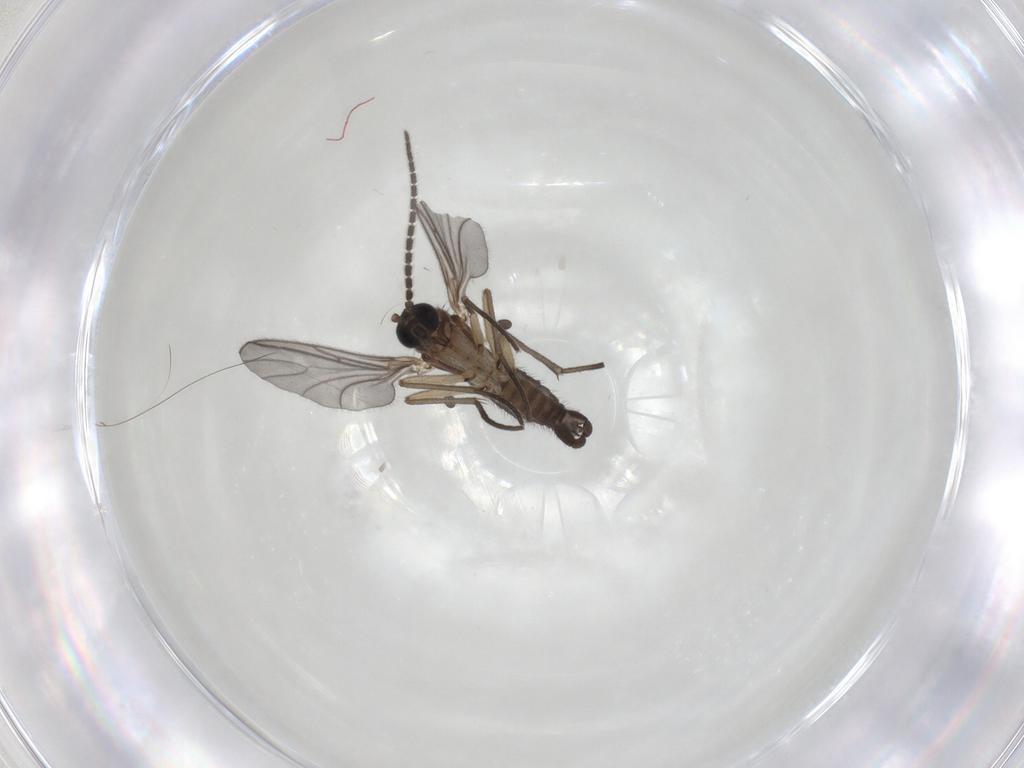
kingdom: Animalia
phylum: Arthropoda
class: Insecta
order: Diptera
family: Sciaridae
